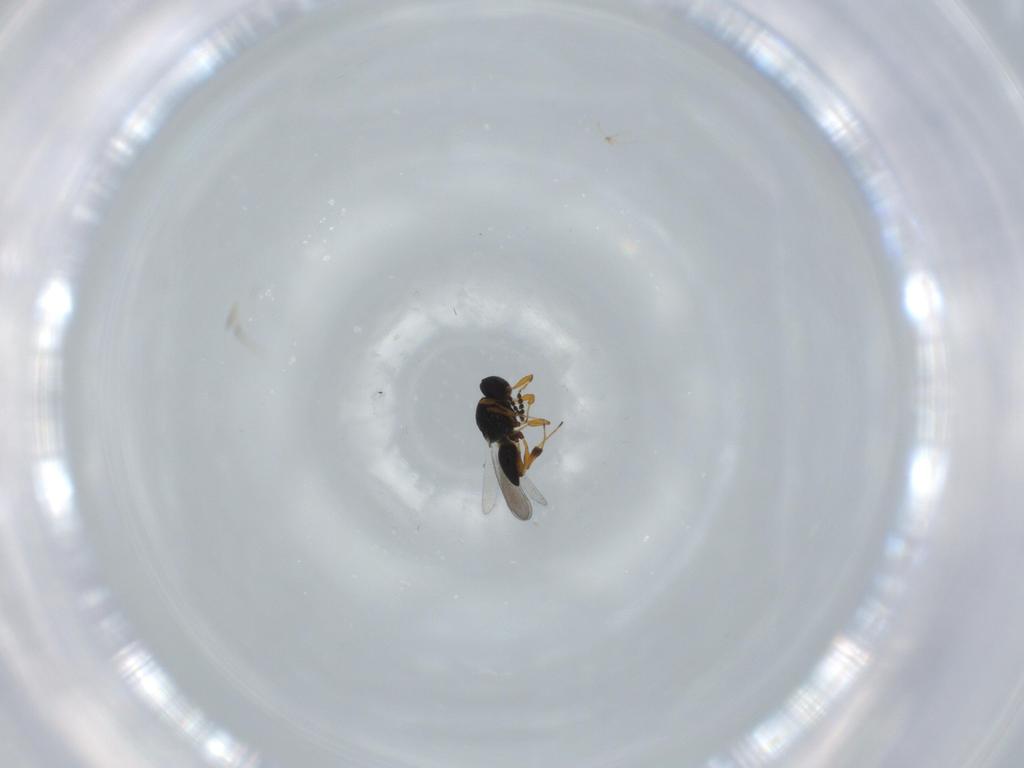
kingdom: Animalia
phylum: Arthropoda
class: Insecta
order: Hymenoptera
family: Platygastridae
